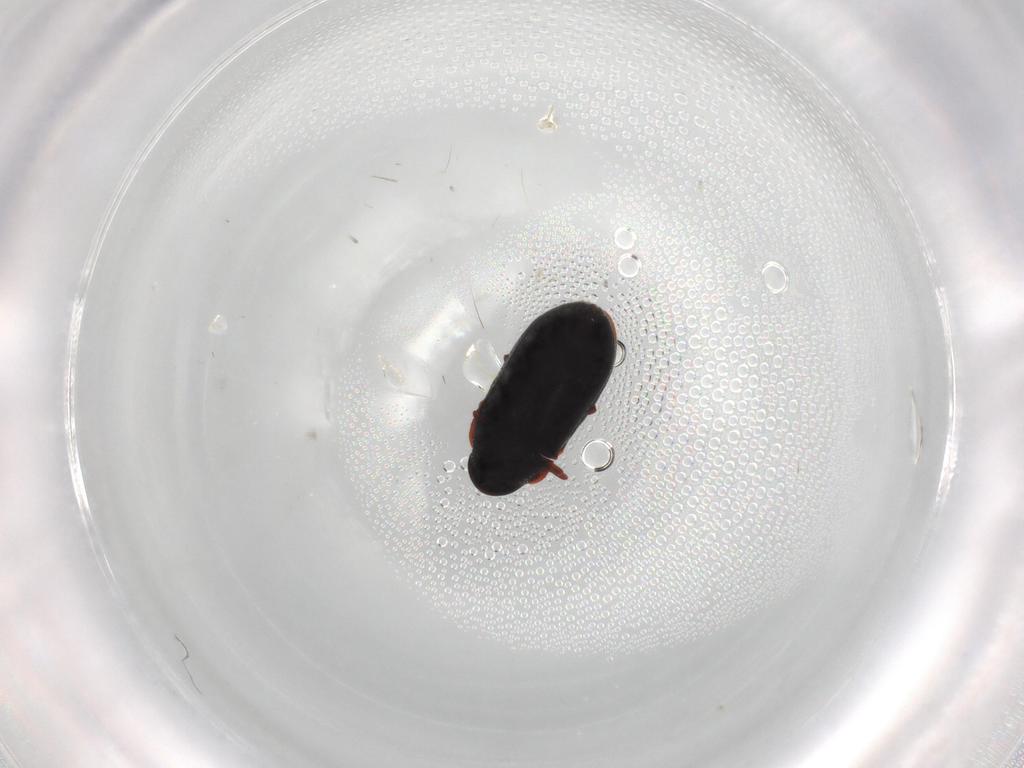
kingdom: Animalia
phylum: Arthropoda
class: Insecta
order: Coleoptera
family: Ptinidae
